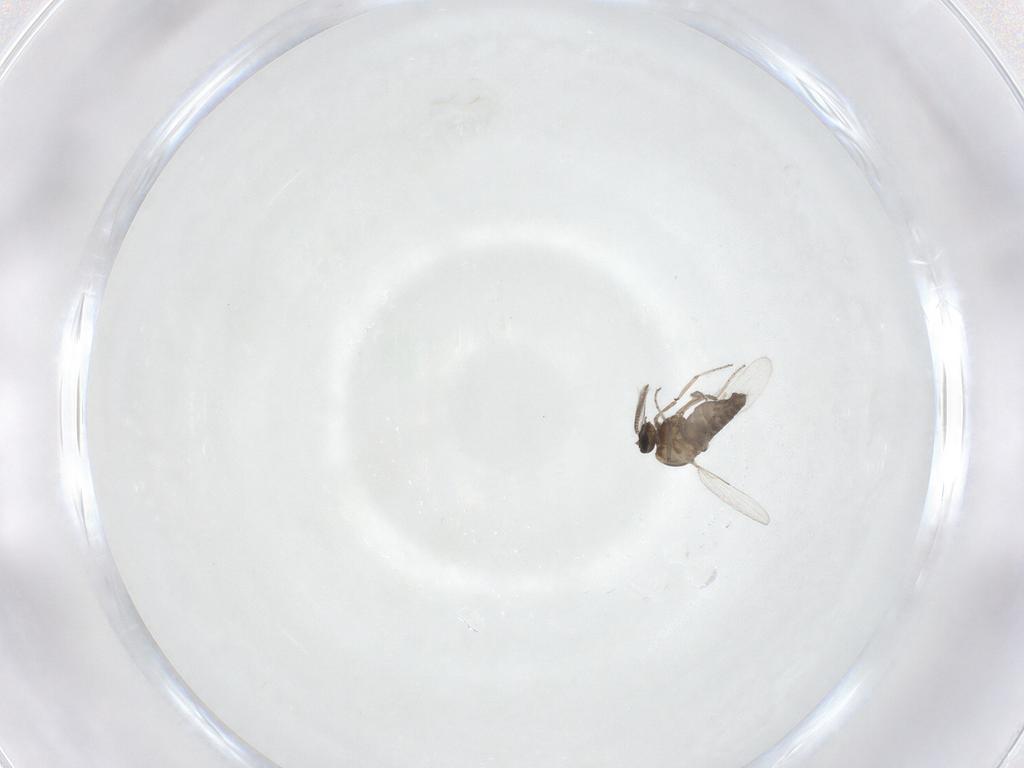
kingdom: Animalia
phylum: Arthropoda
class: Insecta
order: Diptera
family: Ceratopogonidae
